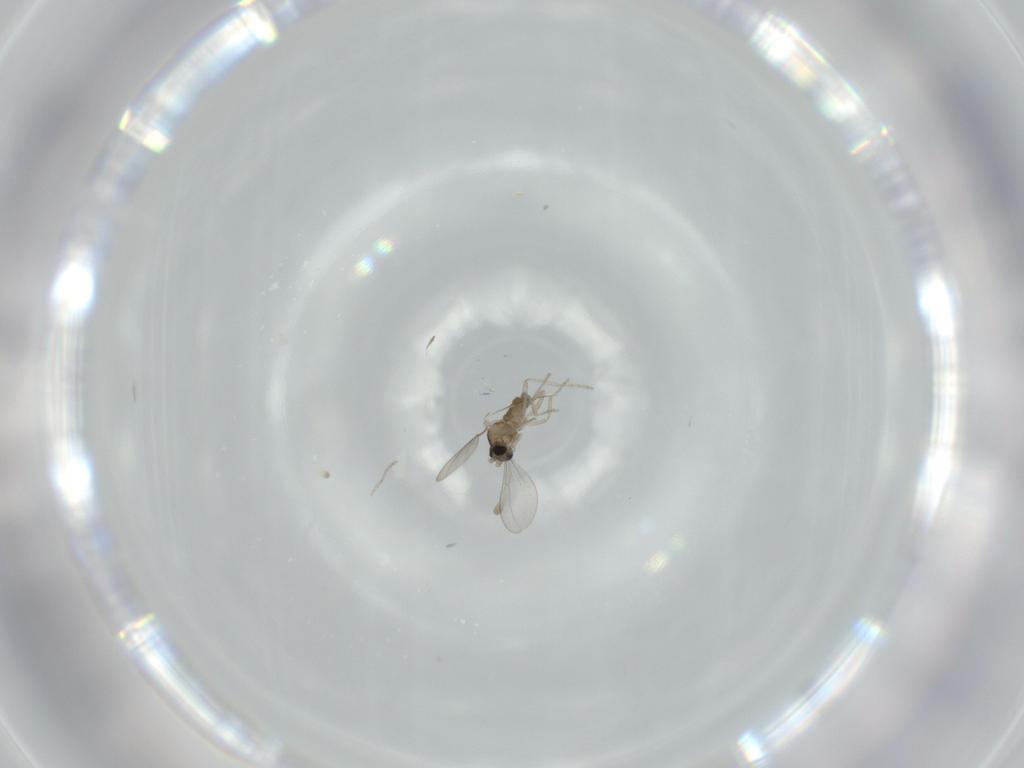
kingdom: Animalia
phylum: Arthropoda
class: Insecta
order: Diptera
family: Cecidomyiidae
